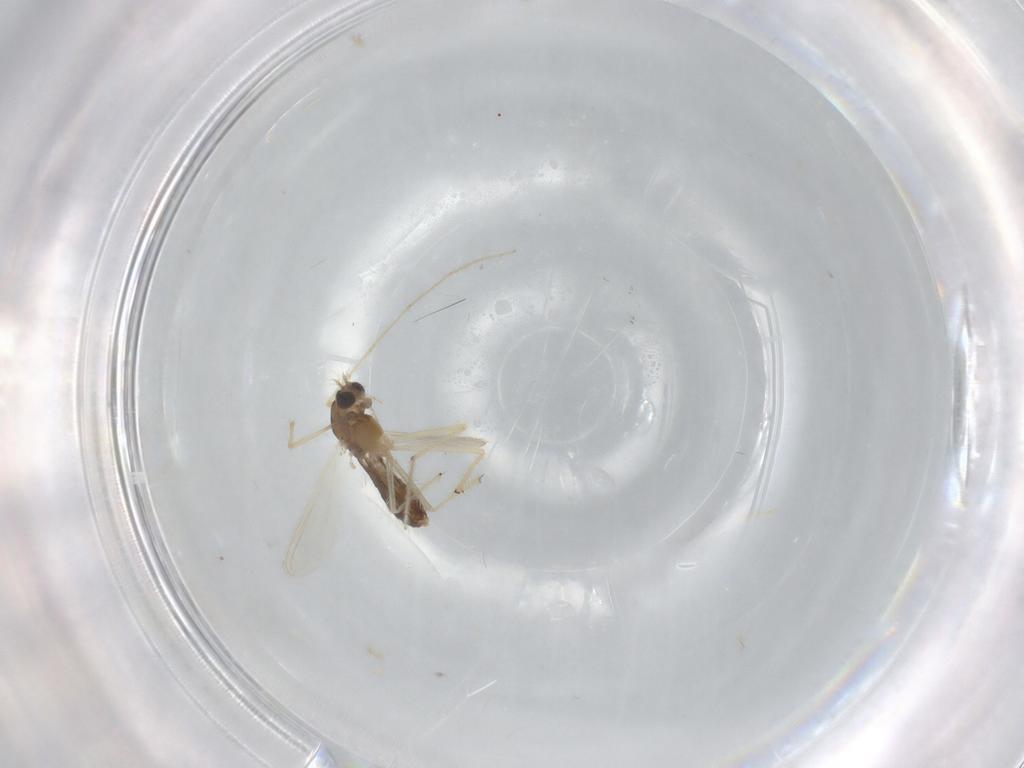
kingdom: Animalia
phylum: Arthropoda
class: Insecta
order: Diptera
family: Chironomidae
